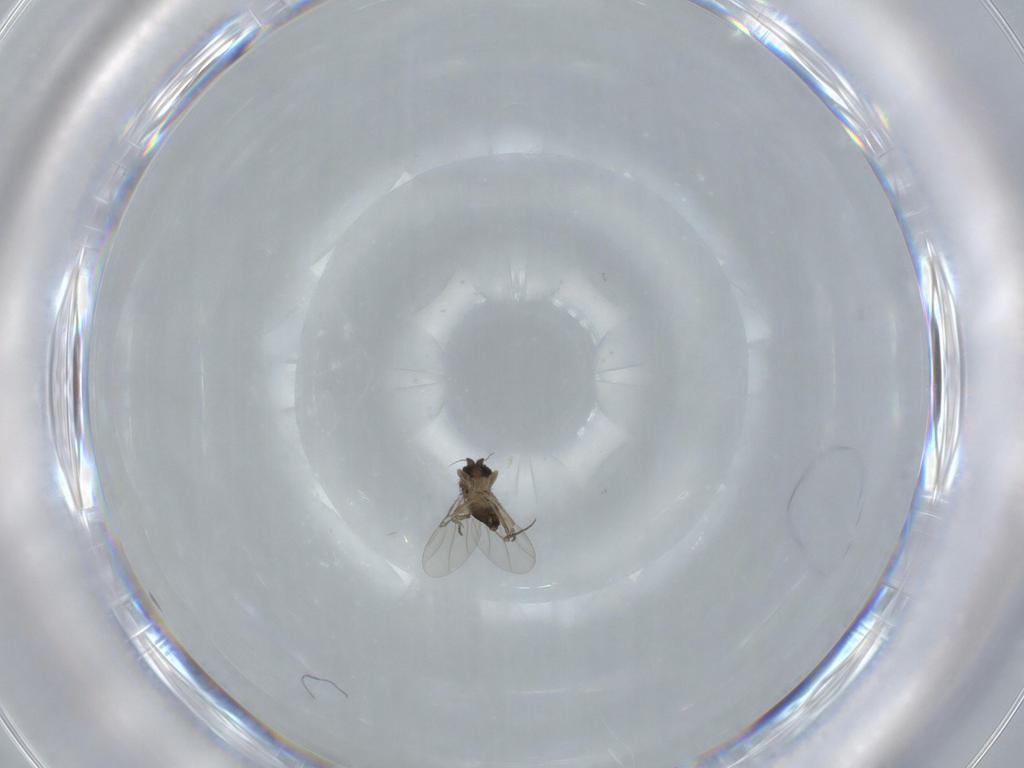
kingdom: Animalia
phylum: Arthropoda
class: Insecta
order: Diptera
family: Phoridae
